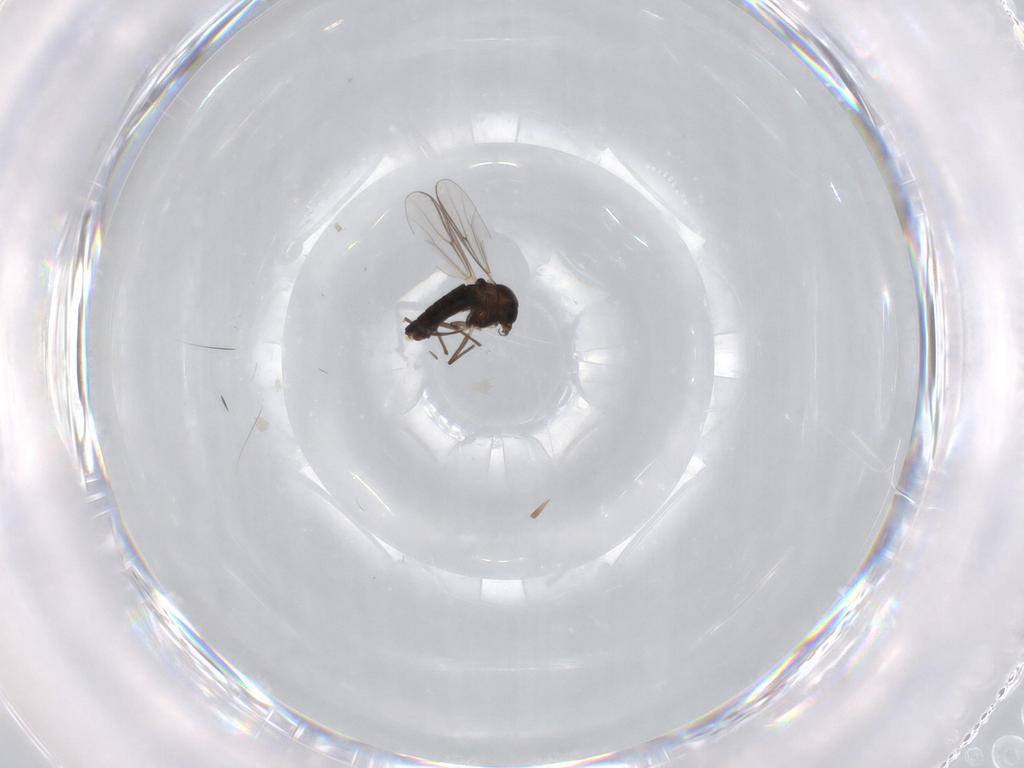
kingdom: Animalia
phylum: Arthropoda
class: Insecta
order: Diptera
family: Chironomidae
